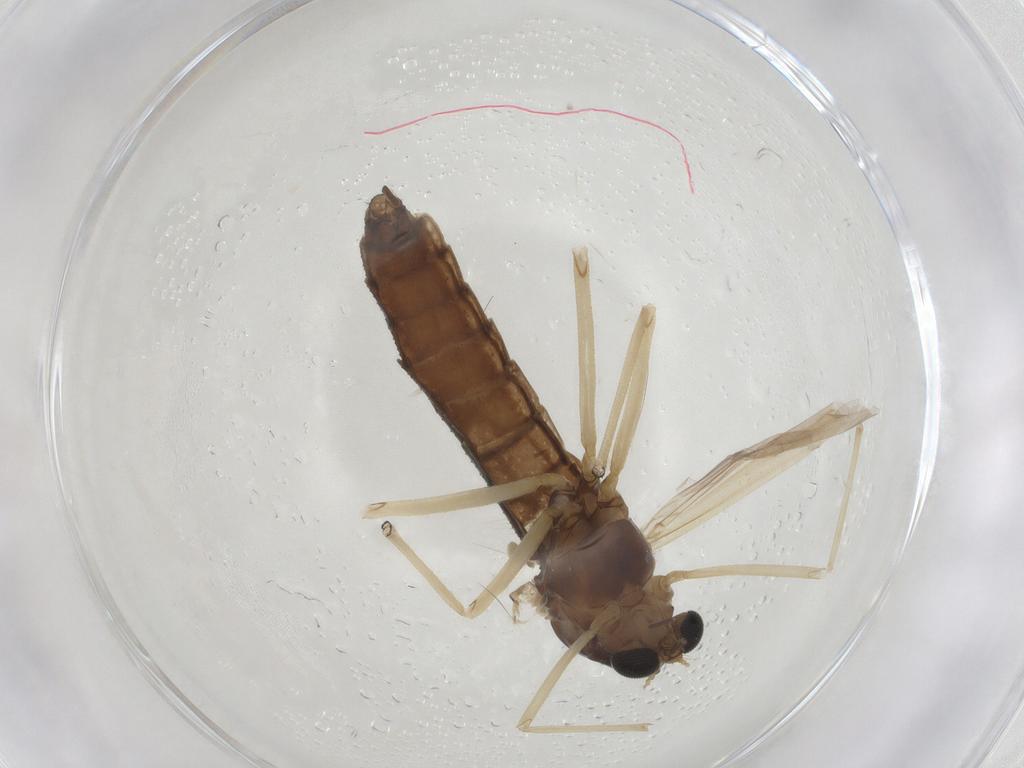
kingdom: Animalia
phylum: Arthropoda
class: Insecta
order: Diptera
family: Chironomidae
